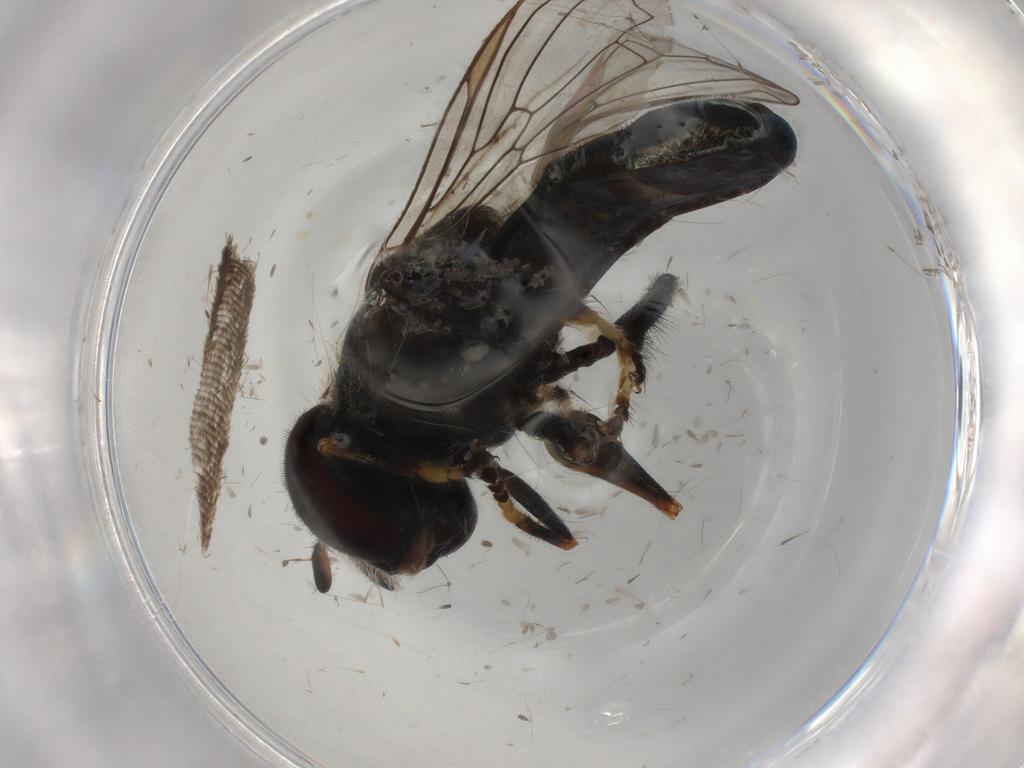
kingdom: Animalia
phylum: Arthropoda
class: Insecta
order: Diptera
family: Syrphidae
